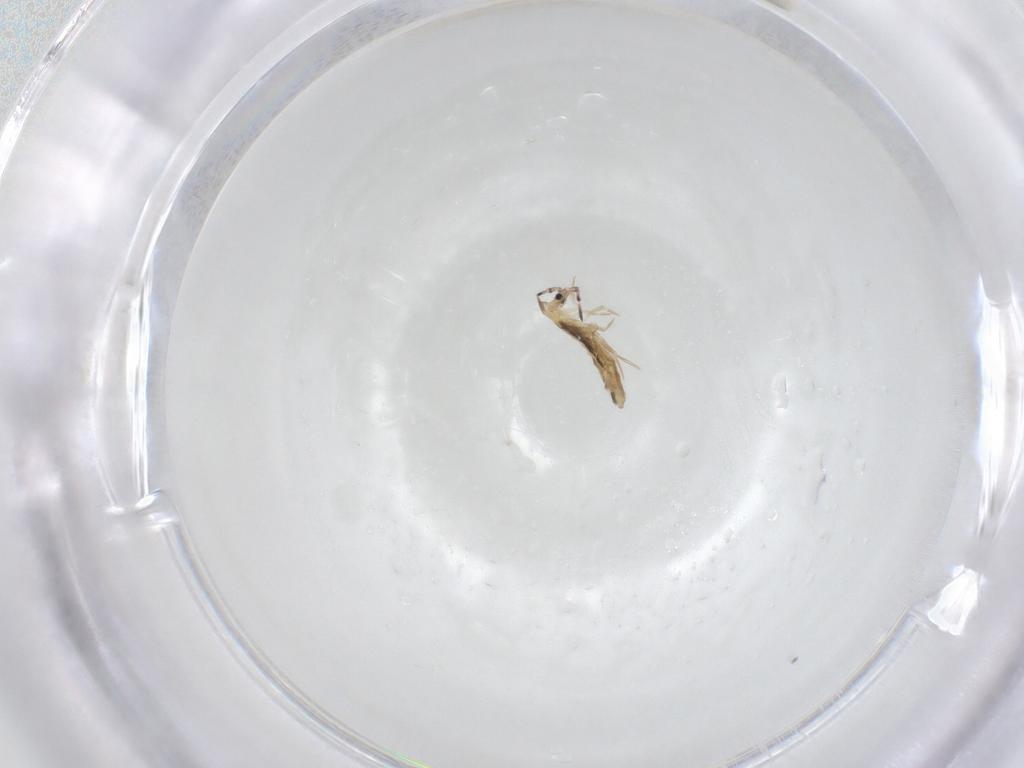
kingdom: Animalia
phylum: Arthropoda
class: Collembola
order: Entomobryomorpha
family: Entomobryidae
